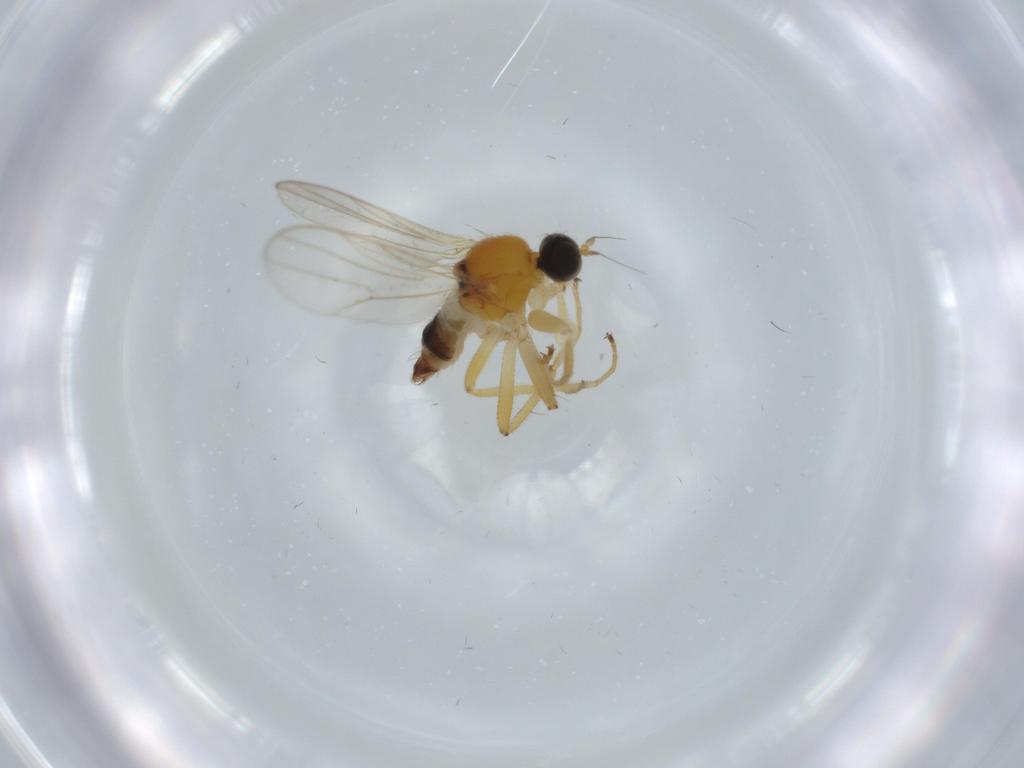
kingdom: Animalia
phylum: Arthropoda
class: Insecta
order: Diptera
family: Hybotidae
